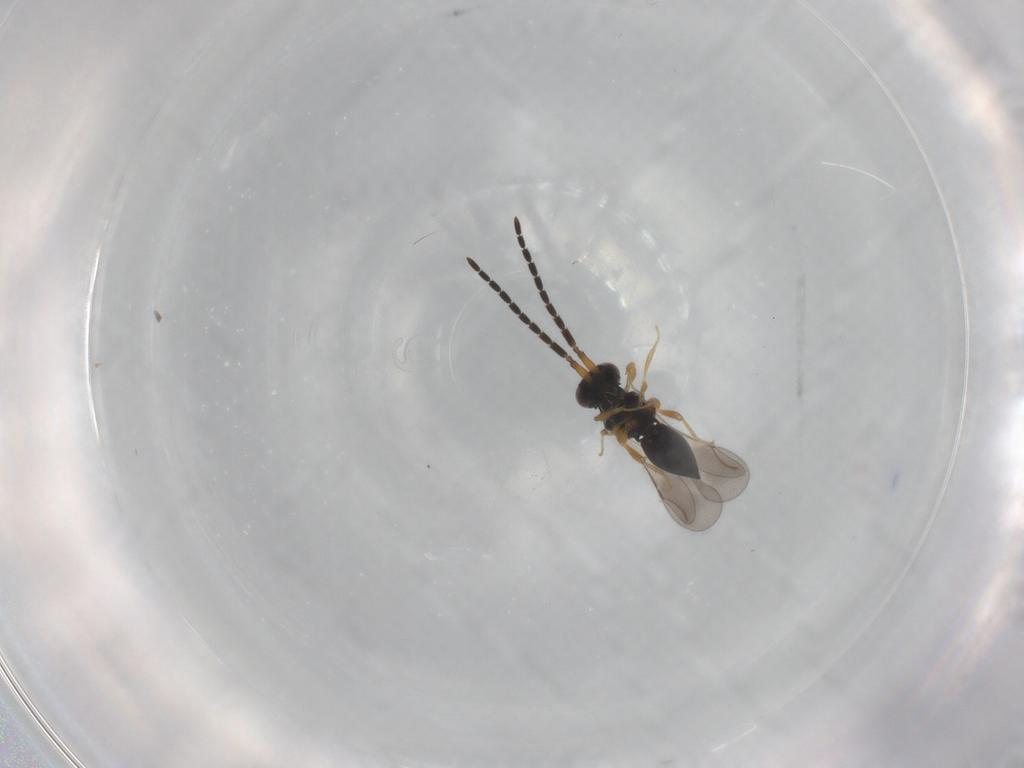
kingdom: Animalia
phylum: Arthropoda
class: Insecta
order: Hymenoptera
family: Ceraphronidae
